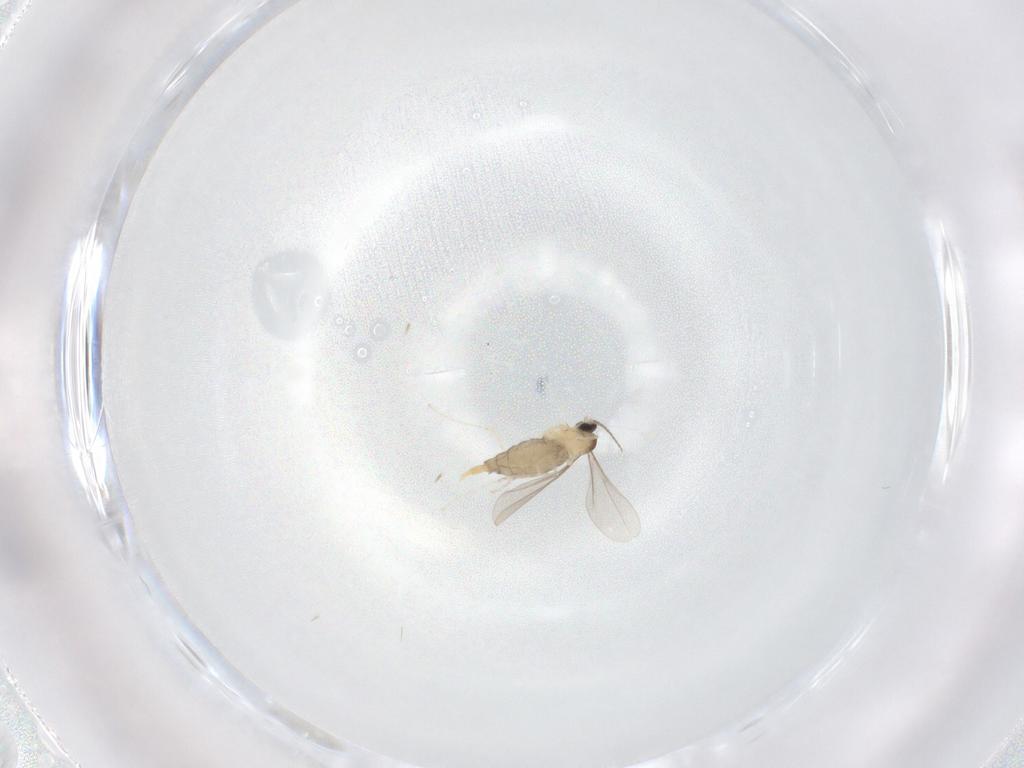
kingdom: Animalia
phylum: Arthropoda
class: Insecta
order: Diptera
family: Cecidomyiidae
